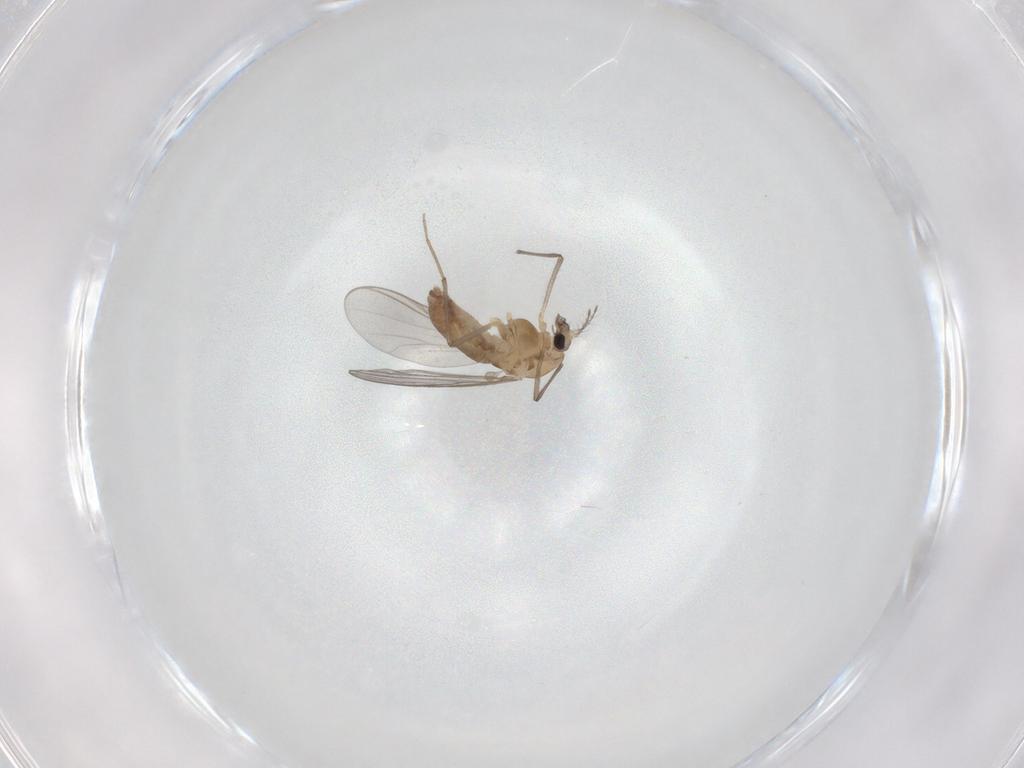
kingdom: Animalia
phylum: Arthropoda
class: Insecta
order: Diptera
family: Chironomidae
